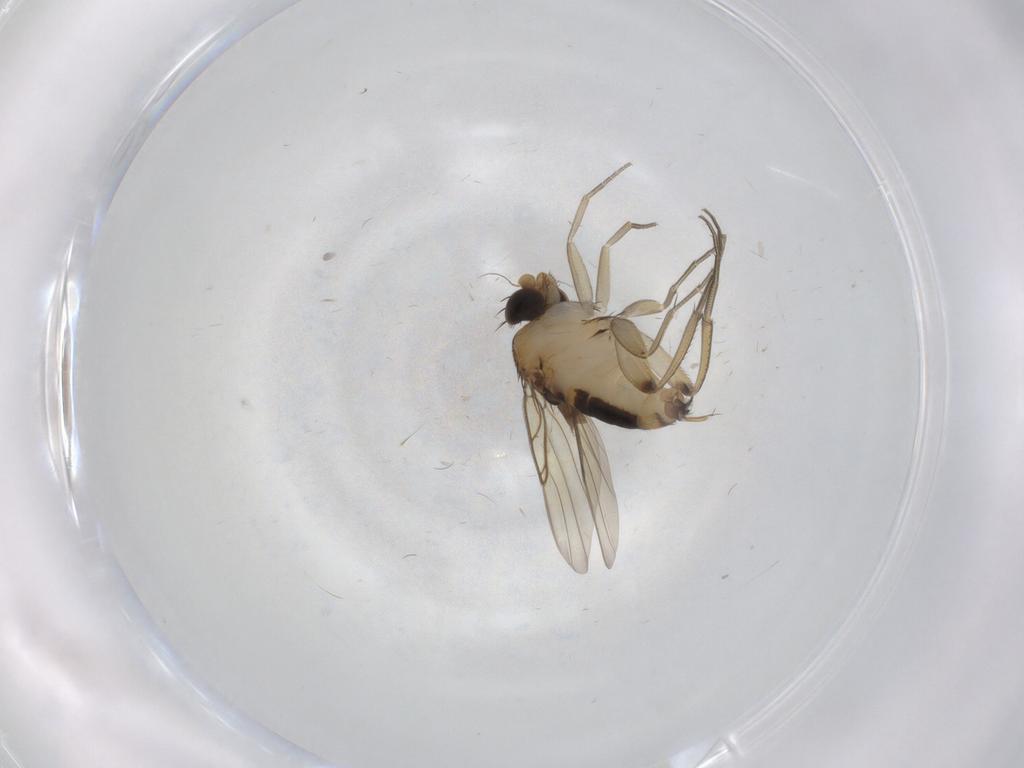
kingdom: Animalia
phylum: Arthropoda
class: Insecta
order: Diptera
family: Phoridae
